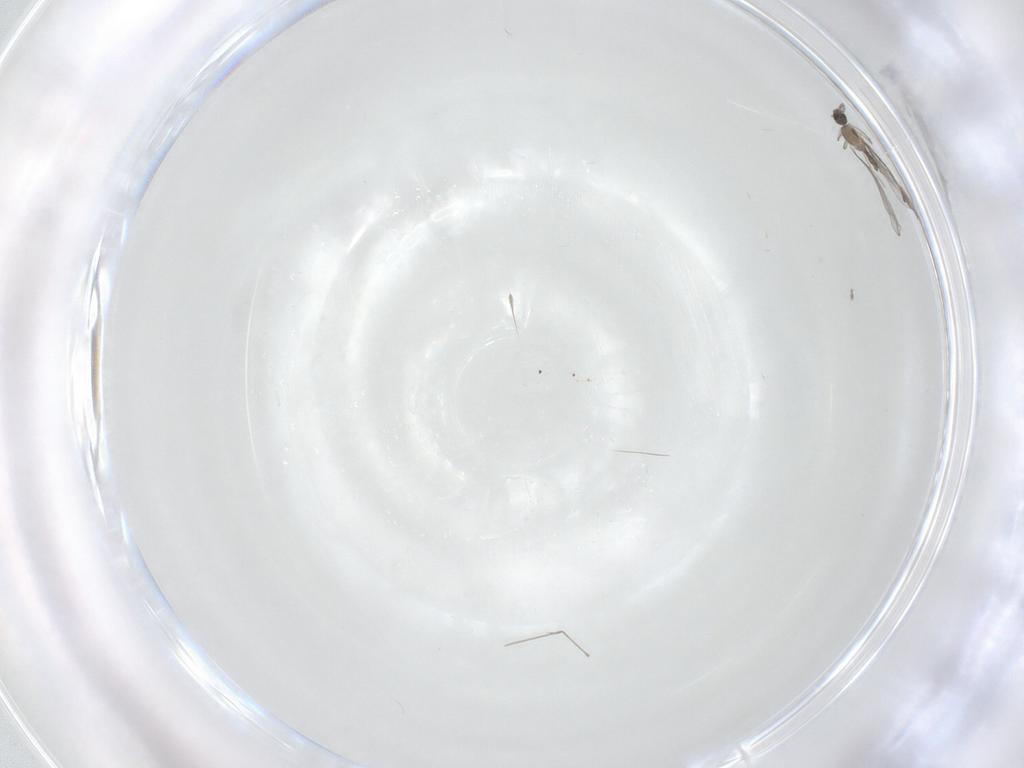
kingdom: Animalia
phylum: Arthropoda
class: Insecta
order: Diptera
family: Cecidomyiidae
